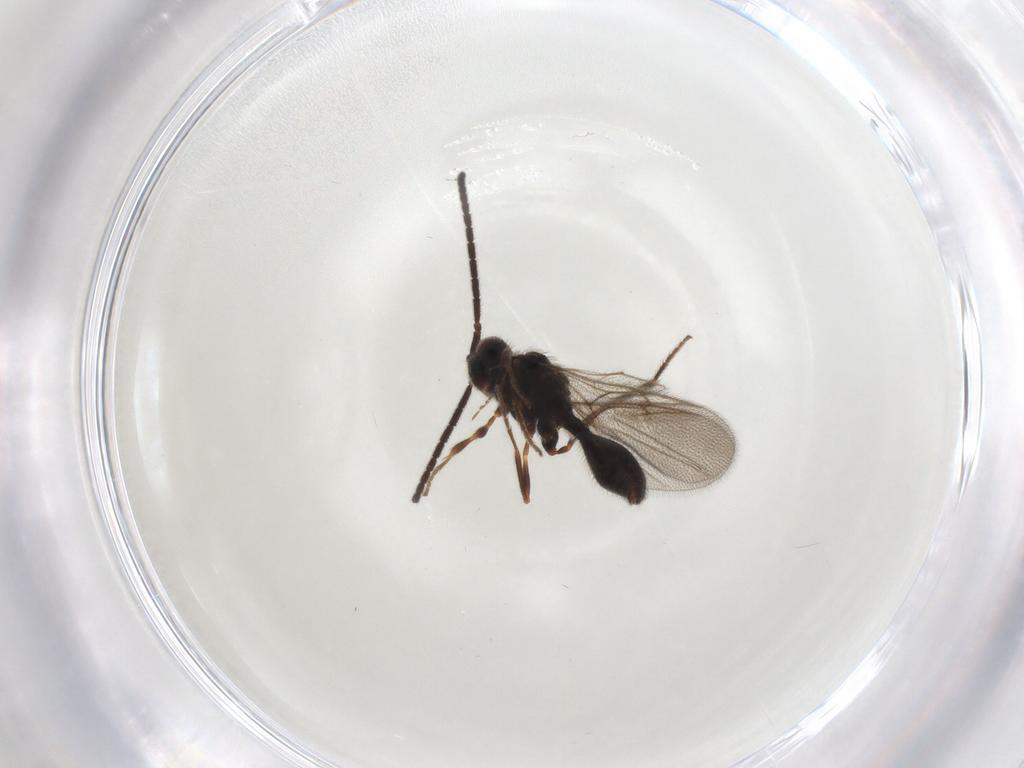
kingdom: Animalia
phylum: Arthropoda
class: Insecta
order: Hymenoptera
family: Diapriidae
